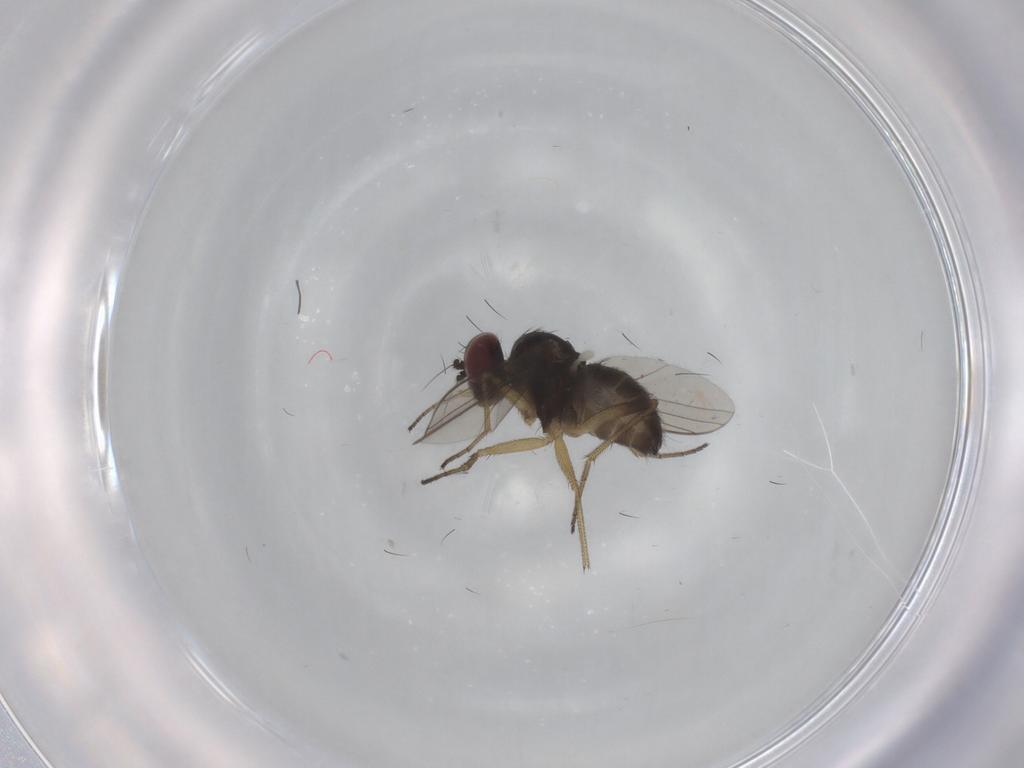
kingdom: Animalia
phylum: Arthropoda
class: Insecta
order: Diptera
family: Dolichopodidae
